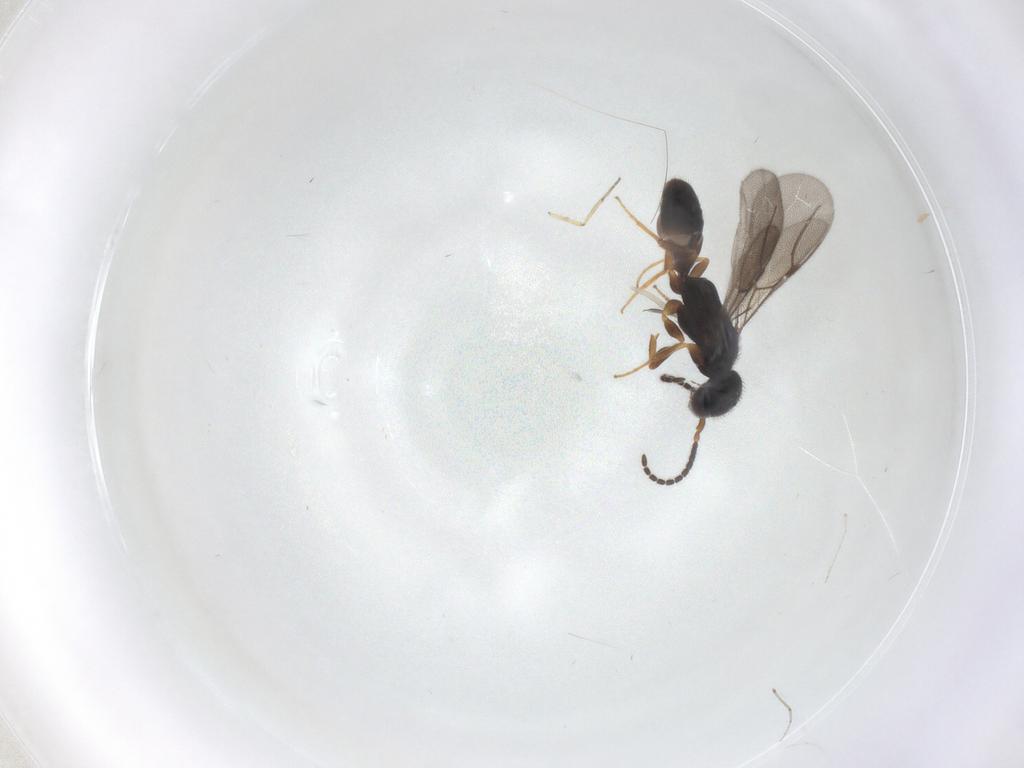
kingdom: Animalia
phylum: Arthropoda
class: Insecta
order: Hymenoptera
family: Bethylidae
